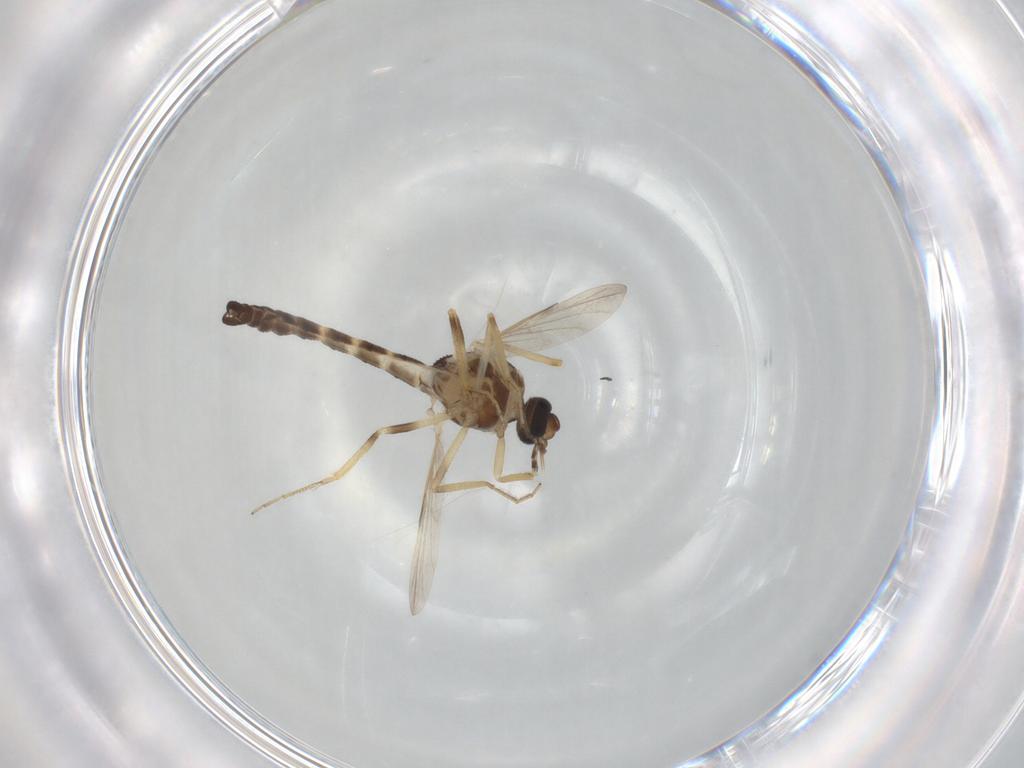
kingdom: Animalia
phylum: Arthropoda
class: Insecta
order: Diptera
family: Ceratopogonidae
